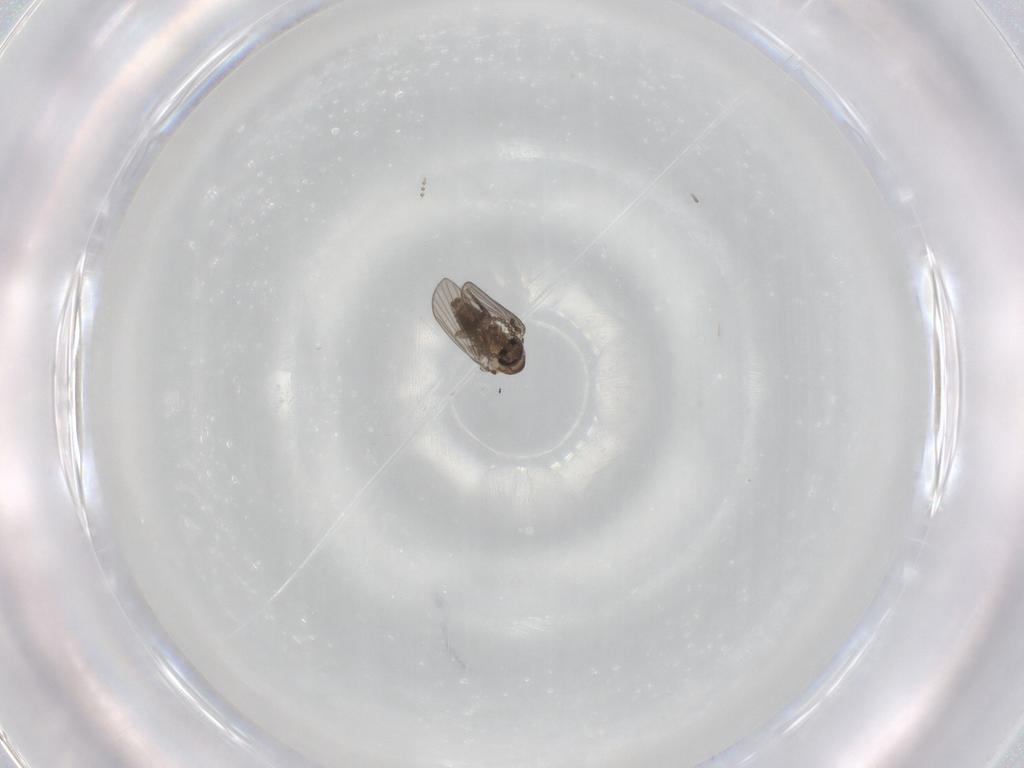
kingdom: Animalia
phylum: Arthropoda
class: Insecta
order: Diptera
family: Psychodidae
